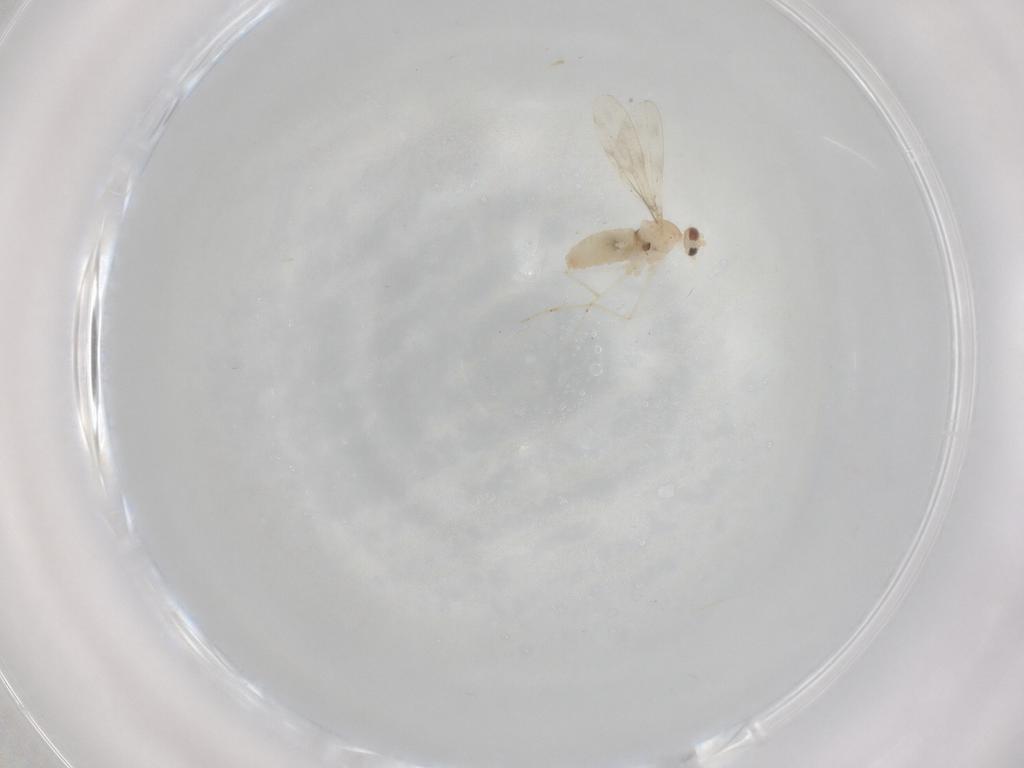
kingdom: Animalia
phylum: Arthropoda
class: Insecta
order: Diptera
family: Cecidomyiidae
